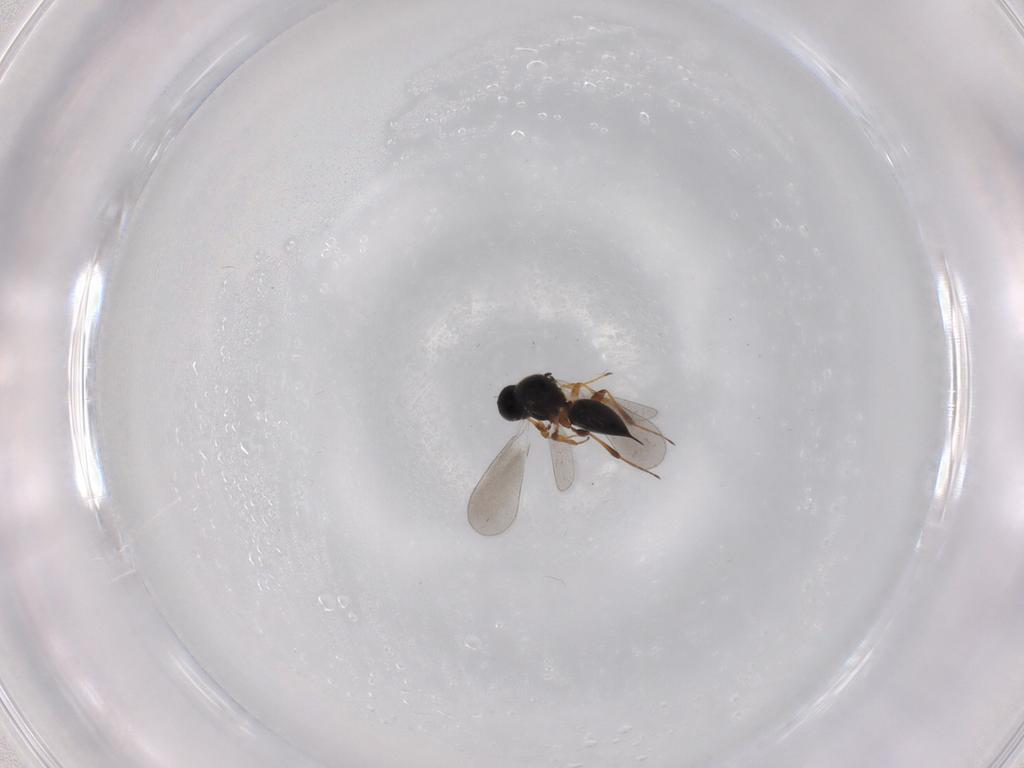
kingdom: Animalia
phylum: Arthropoda
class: Insecta
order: Hymenoptera
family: Platygastridae
